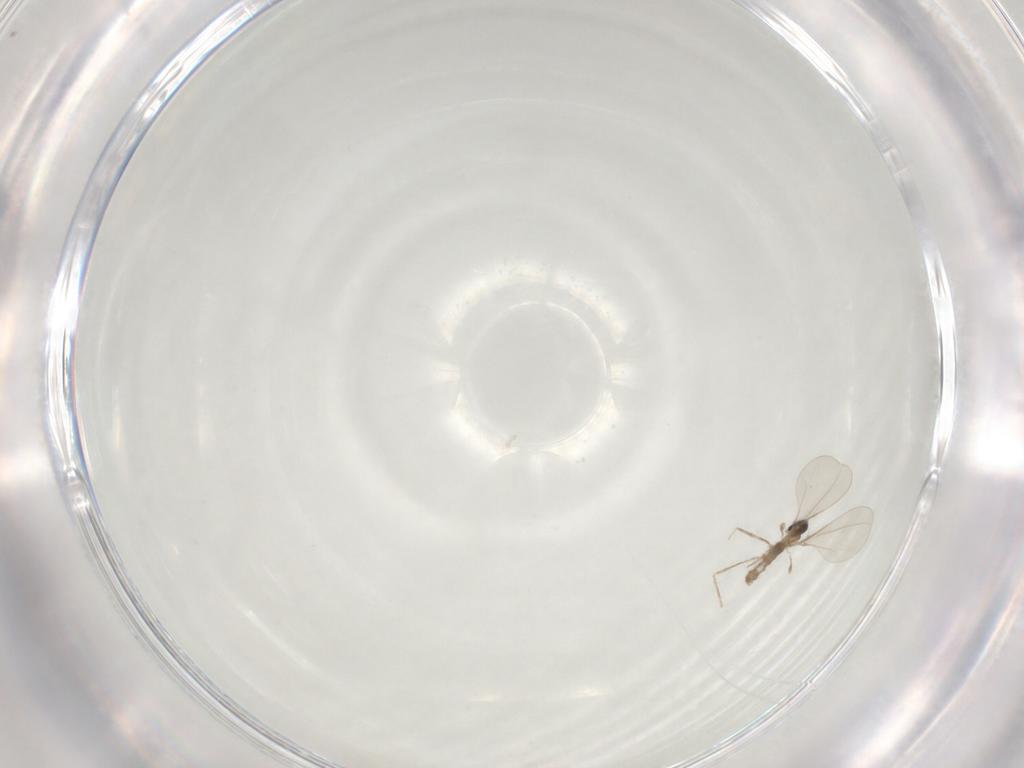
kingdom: Animalia
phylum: Arthropoda
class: Insecta
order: Diptera
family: Chironomidae
